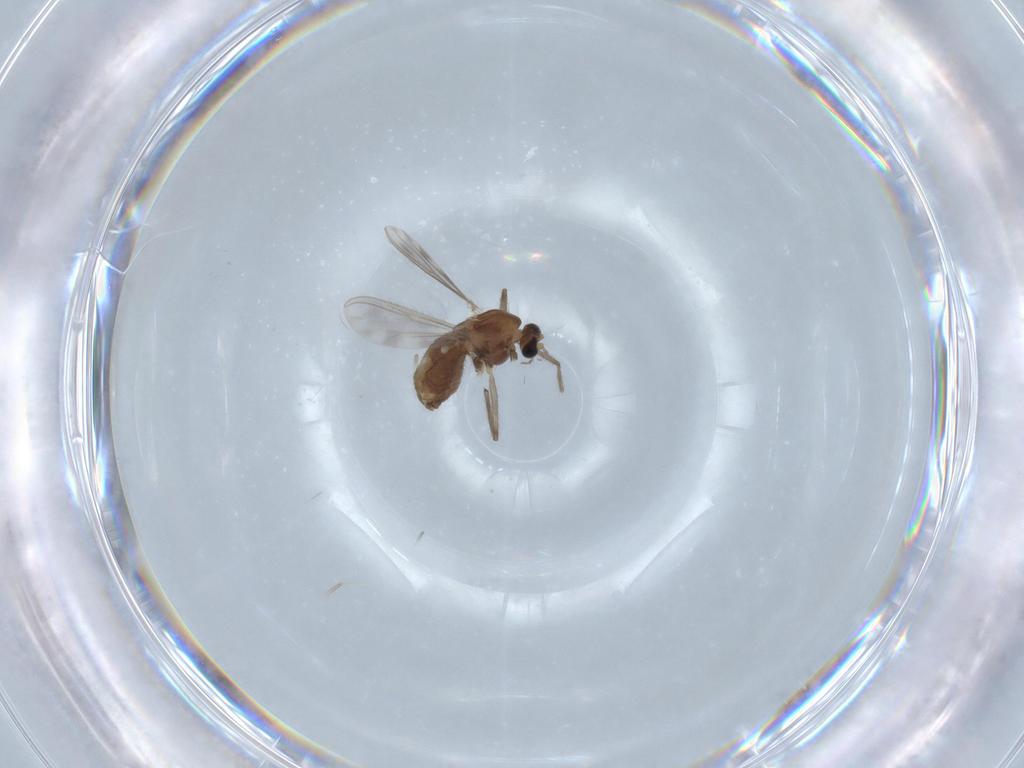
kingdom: Animalia
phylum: Arthropoda
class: Insecta
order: Diptera
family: Chironomidae
